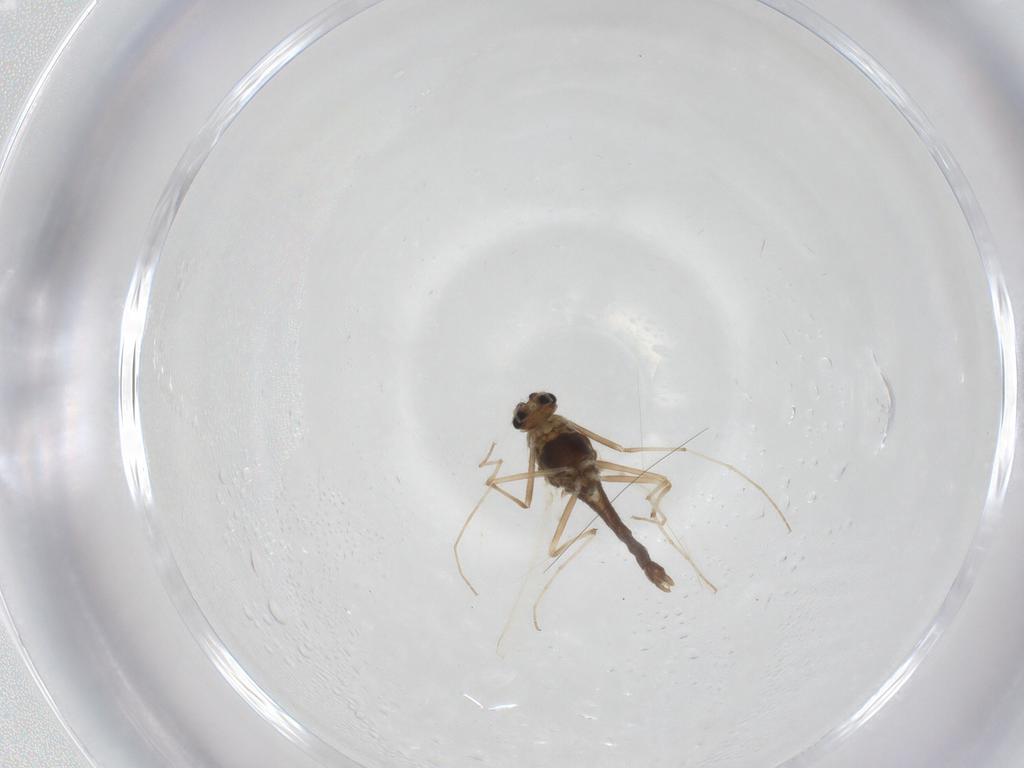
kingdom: Animalia
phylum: Arthropoda
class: Insecta
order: Diptera
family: Chironomidae
